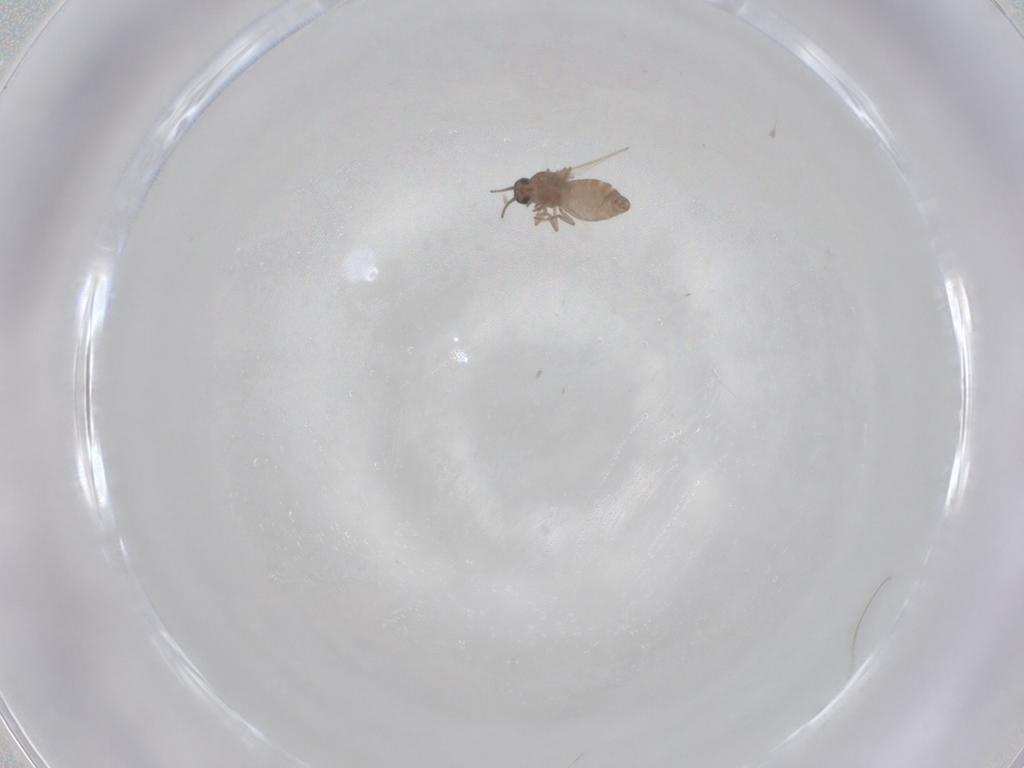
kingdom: Animalia
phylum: Arthropoda
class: Insecta
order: Diptera
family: Ceratopogonidae
